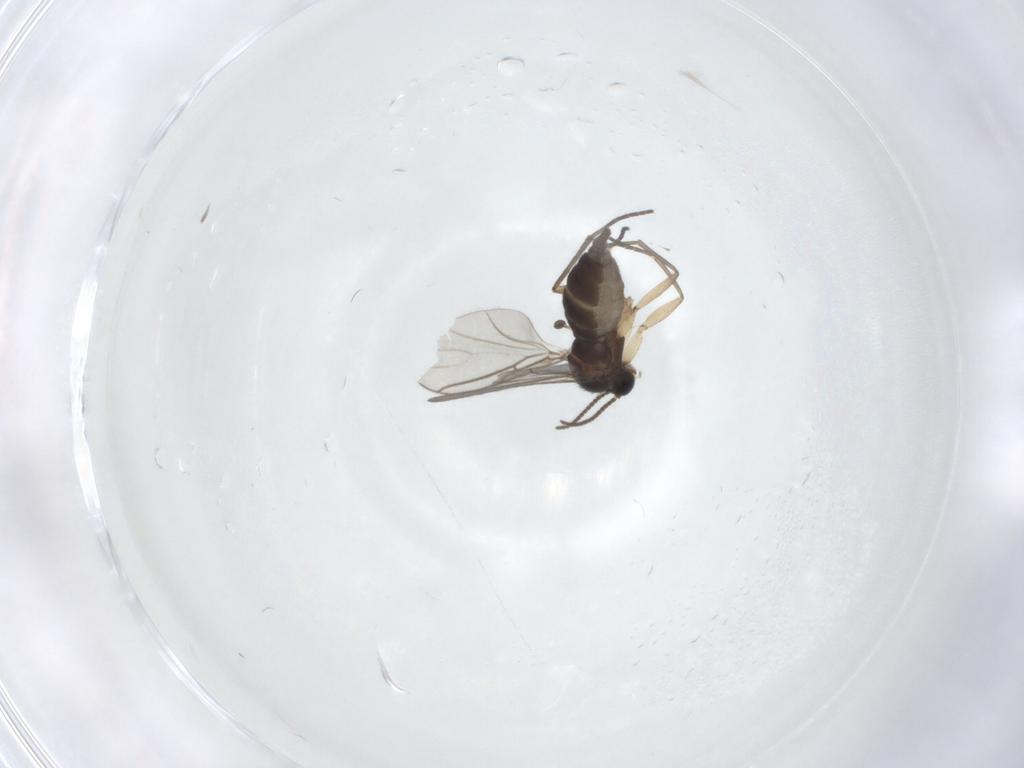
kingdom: Animalia
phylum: Arthropoda
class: Insecta
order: Diptera
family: Sciaridae
